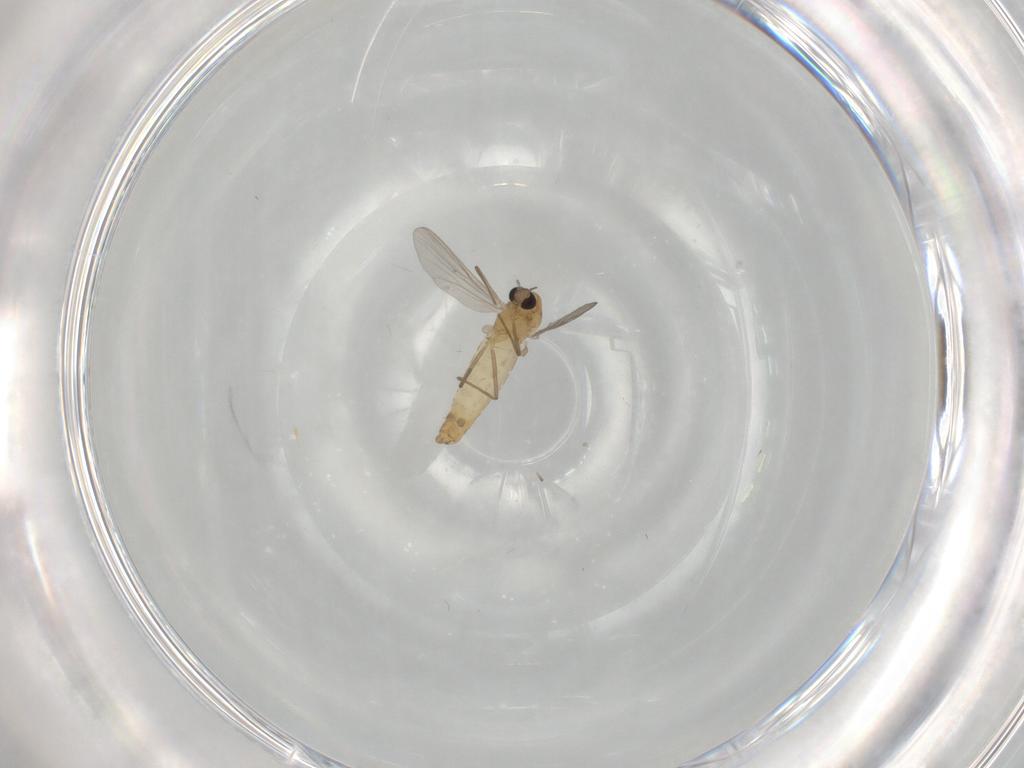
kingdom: Animalia
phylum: Arthropoda
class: Insecta
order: Diptera
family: Chironomidae
